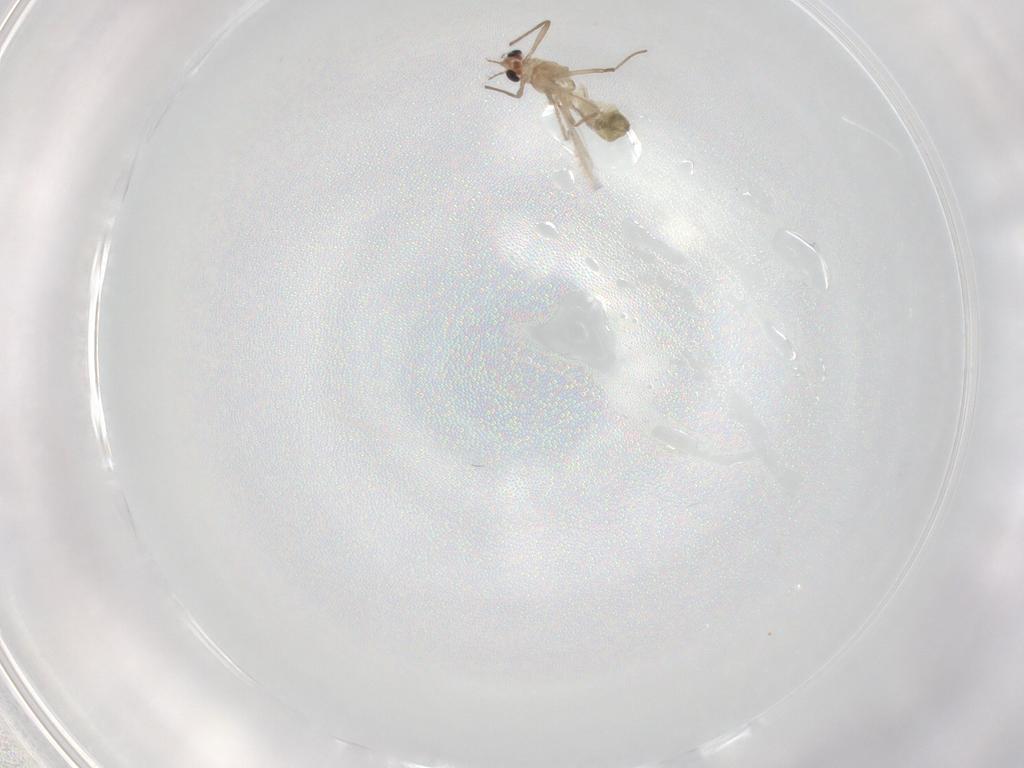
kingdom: Animalia
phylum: Arthropoda
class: Insecta
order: Diptera
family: Chironomidae
